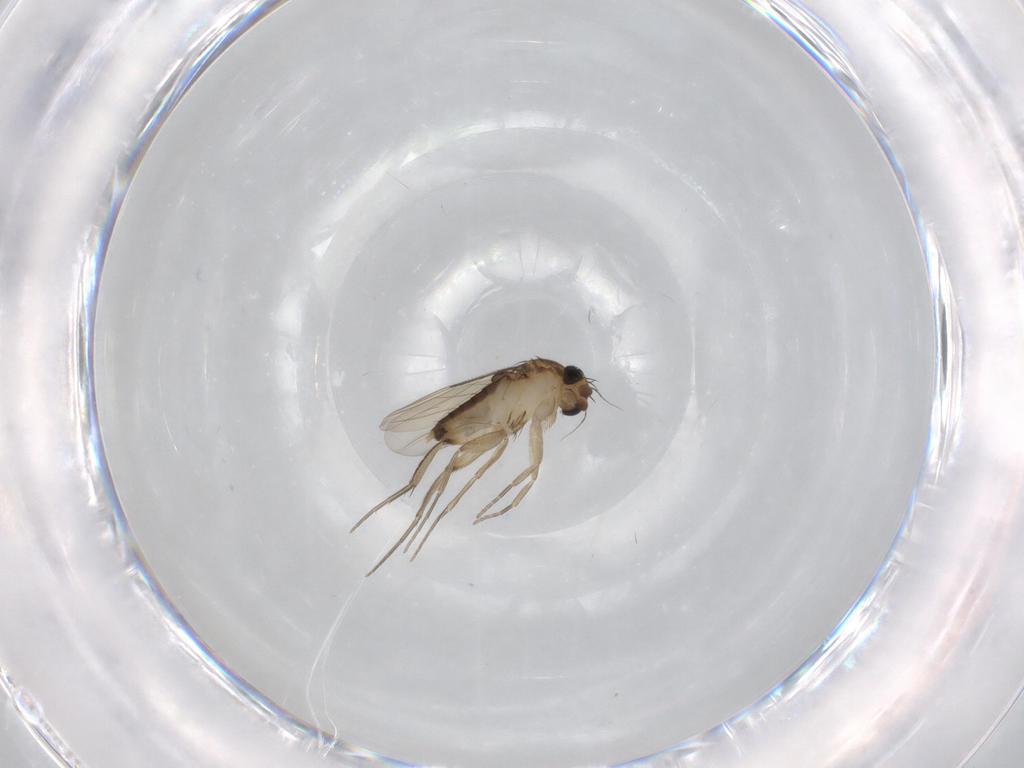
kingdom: Animalia
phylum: Arthropoda
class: Insecta
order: Diptera
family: Phoridae
